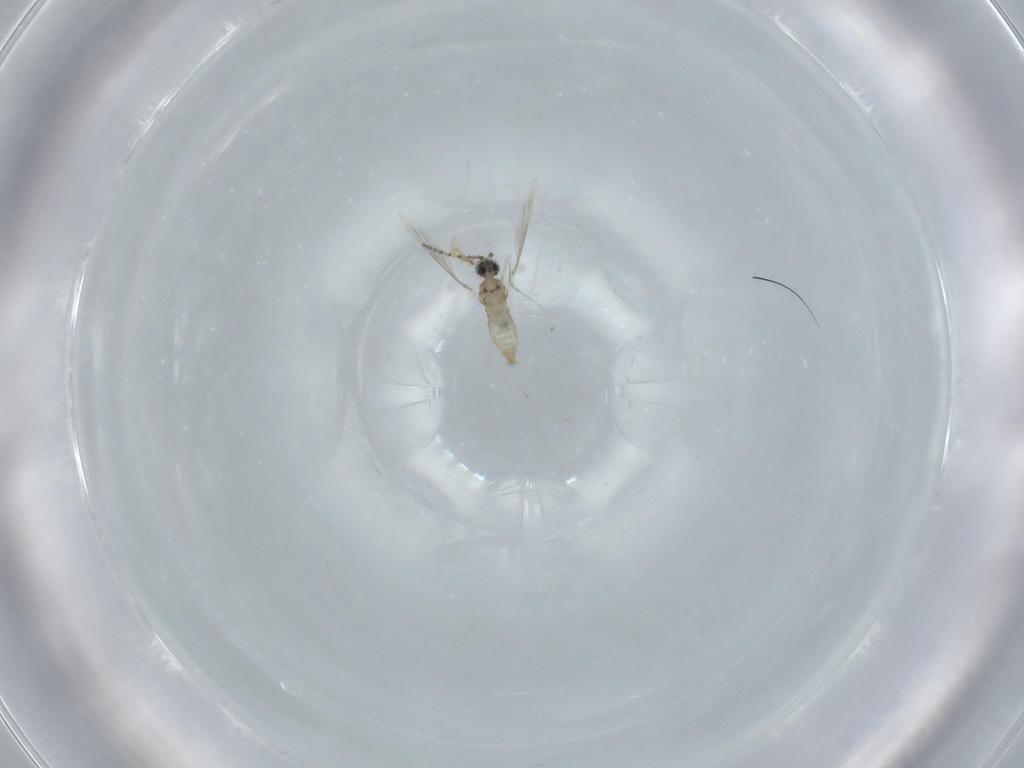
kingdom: Animalia
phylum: Arthropoda
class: Insecta
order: Diptera
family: Cecidomyiidae
